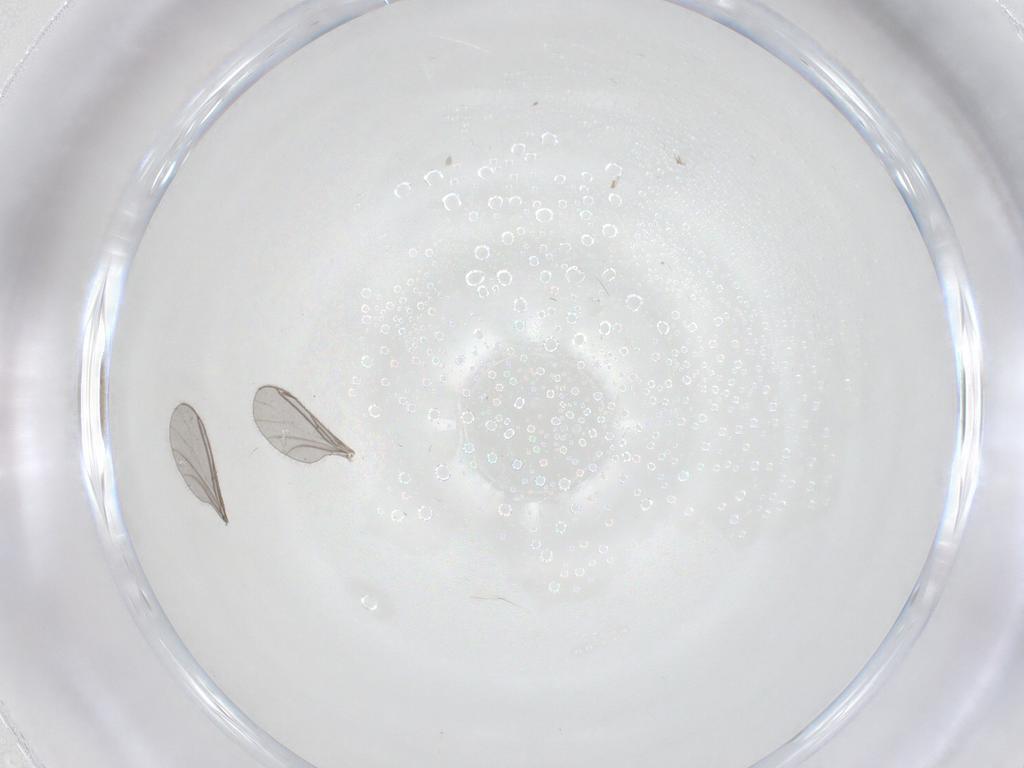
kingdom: Animalia
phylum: Arthropoda
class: Insecta
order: Diptera
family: Sciaridae
